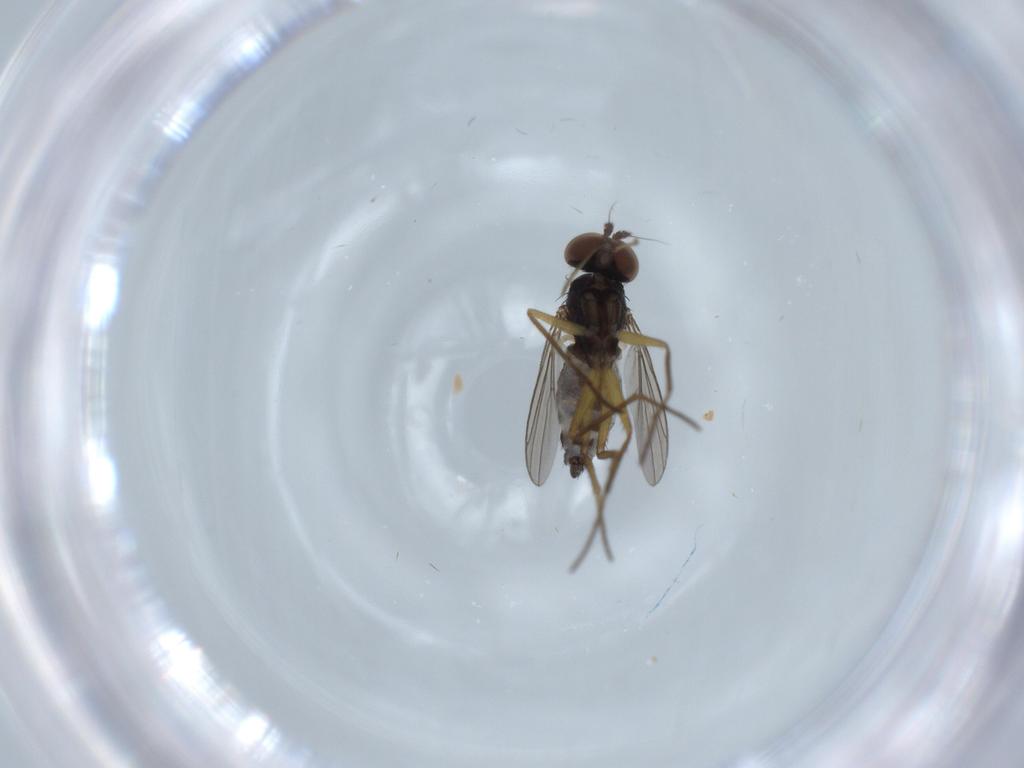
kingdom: Animalia
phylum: Arthropoda
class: Insecta
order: Diptera
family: Dolichopodidae
